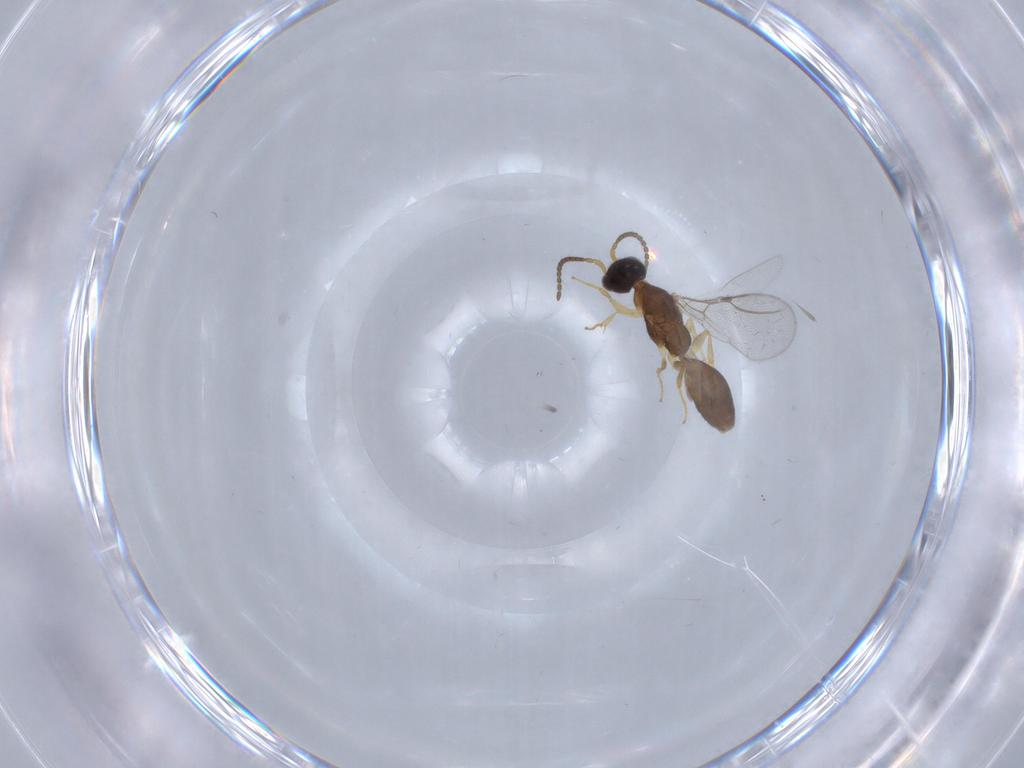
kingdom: Animalia
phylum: Arthropoda
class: Insecta
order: Hymenoptera
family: Bethylidae
